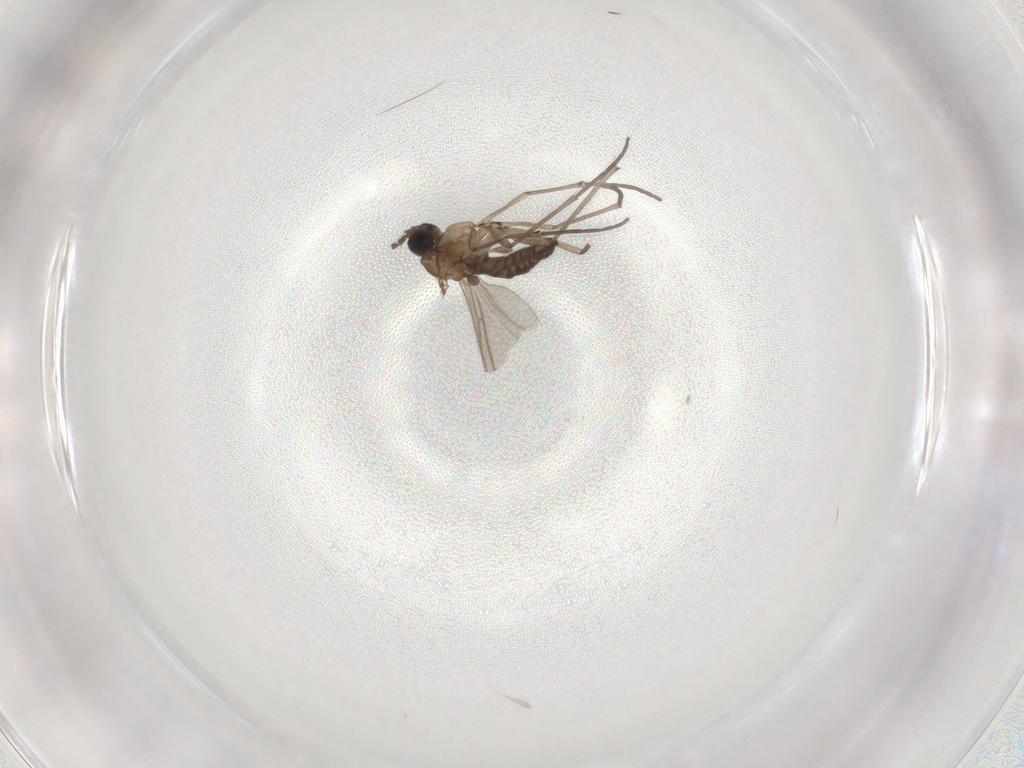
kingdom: Animalia
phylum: Arthropoda
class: Insecta
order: Diptera
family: Sciaridae
